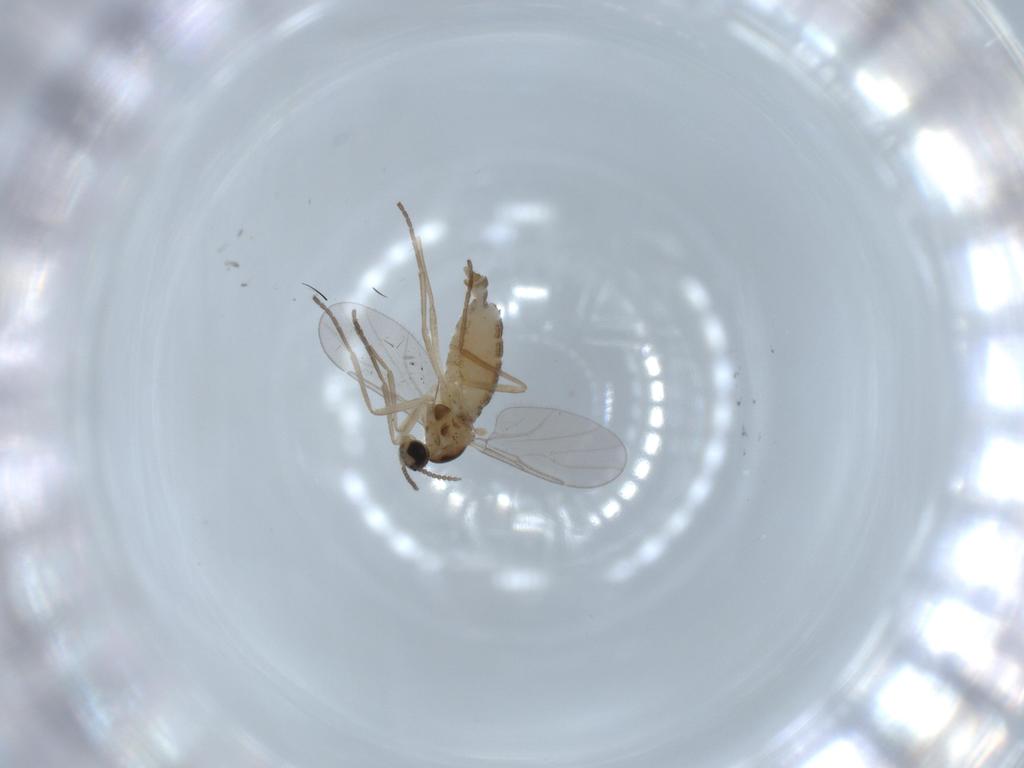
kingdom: Animalia
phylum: Arthropoda
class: Insecta
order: Diptera
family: Cecidomyiidae
